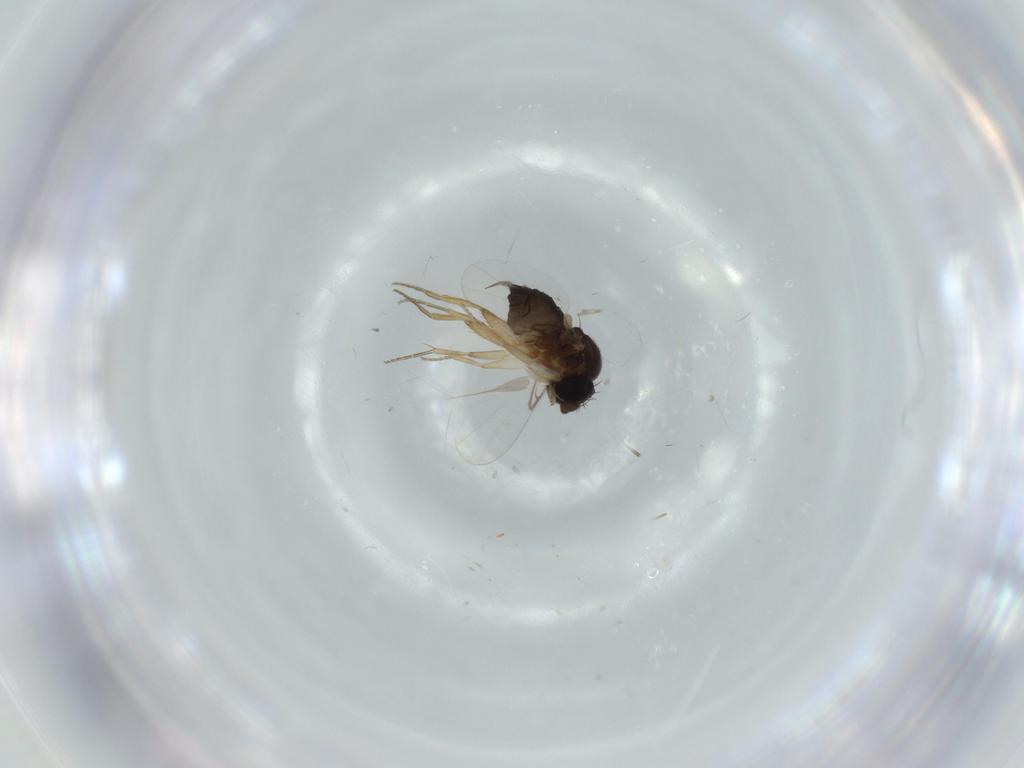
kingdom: Animalia
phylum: Arthropoda
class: Insecta
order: Diptera
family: Phoridae
